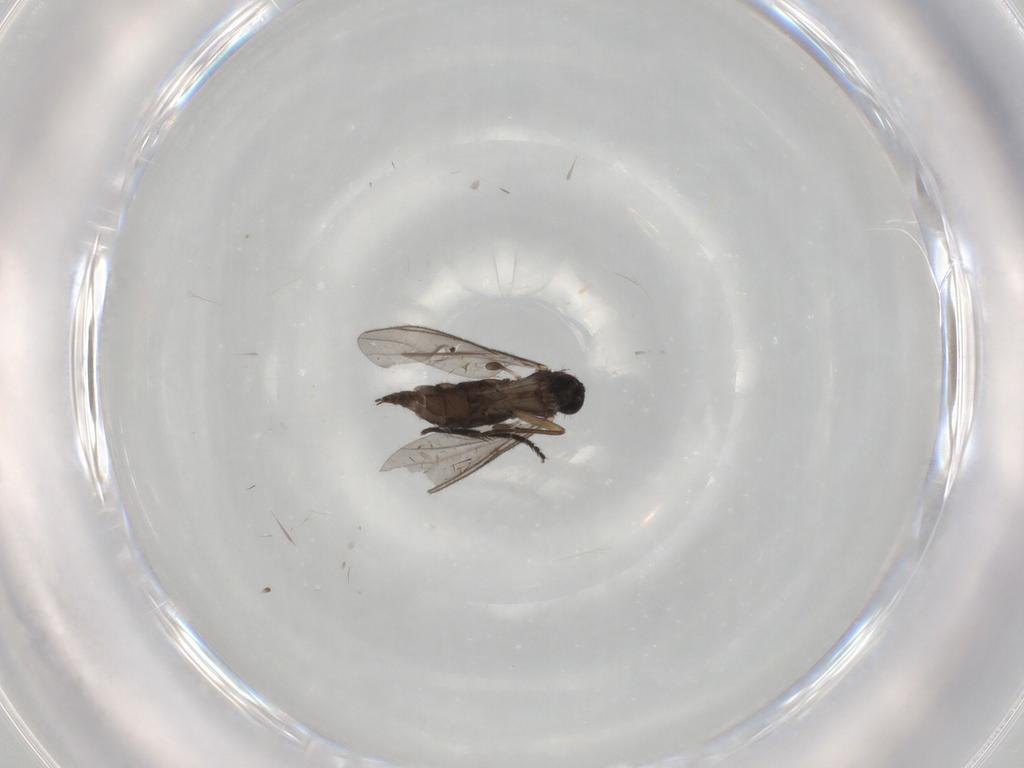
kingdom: Animalia
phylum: Arthropoda
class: Insecta
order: Diptera
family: Sciaridae
